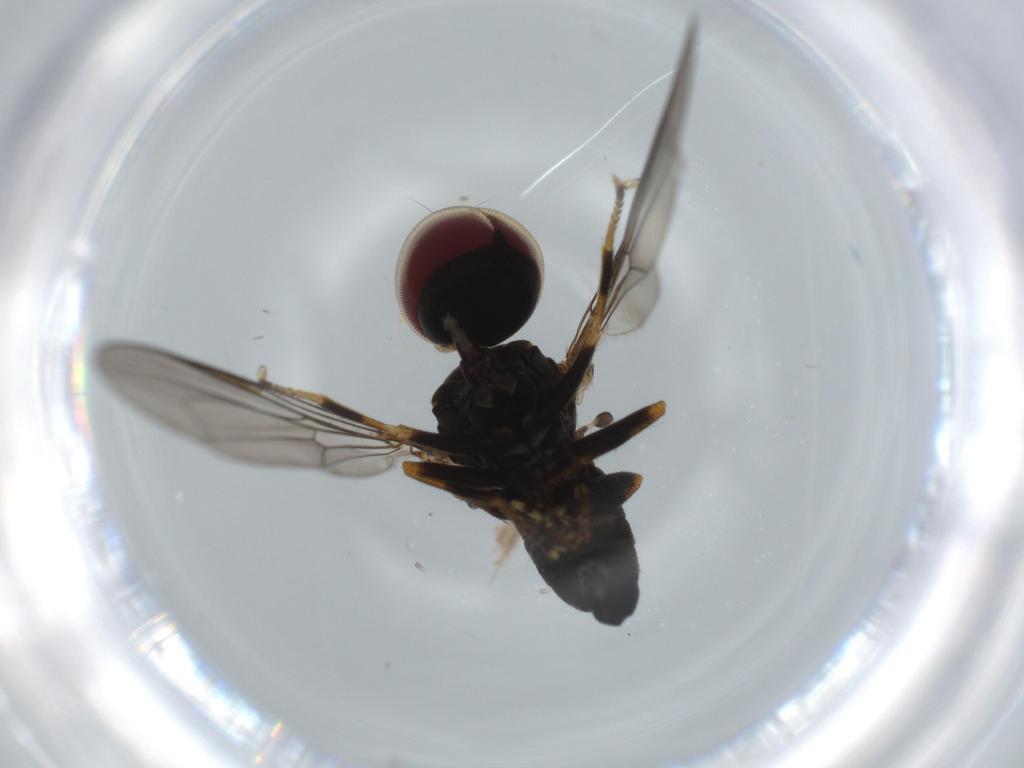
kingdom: Animalia
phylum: Arthropoda
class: Insecta
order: Diptera
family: Pipunculidae
